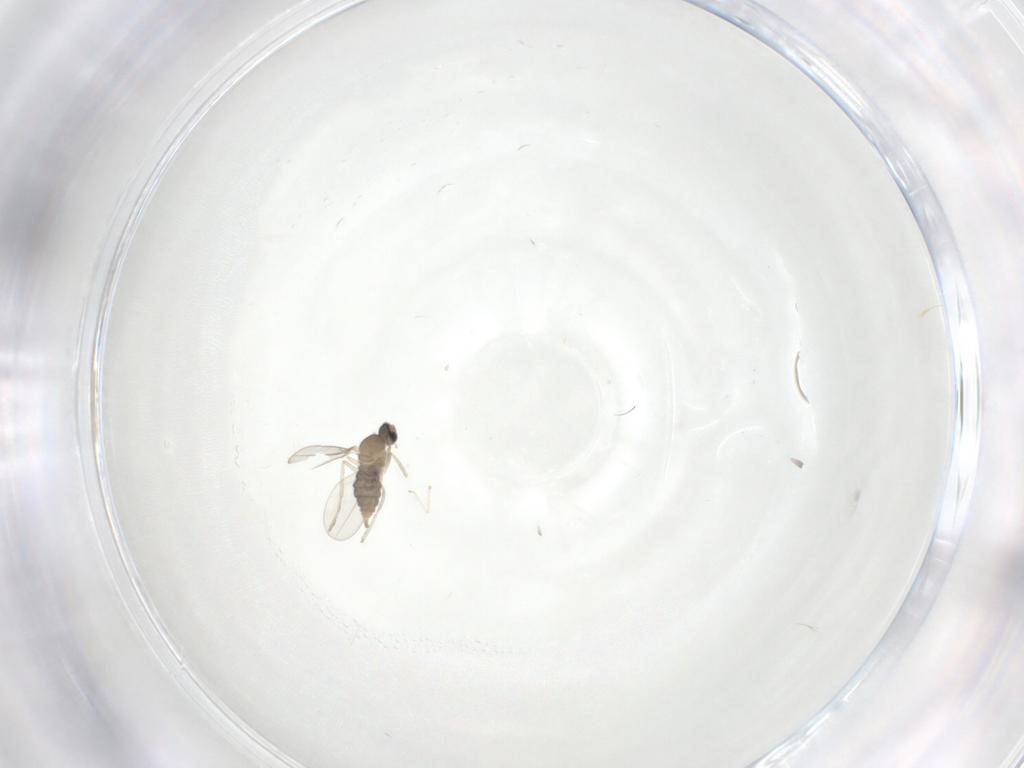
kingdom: Animalia
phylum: Arthropoda
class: Insecta
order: Diptera
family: Cecidomyiidae
